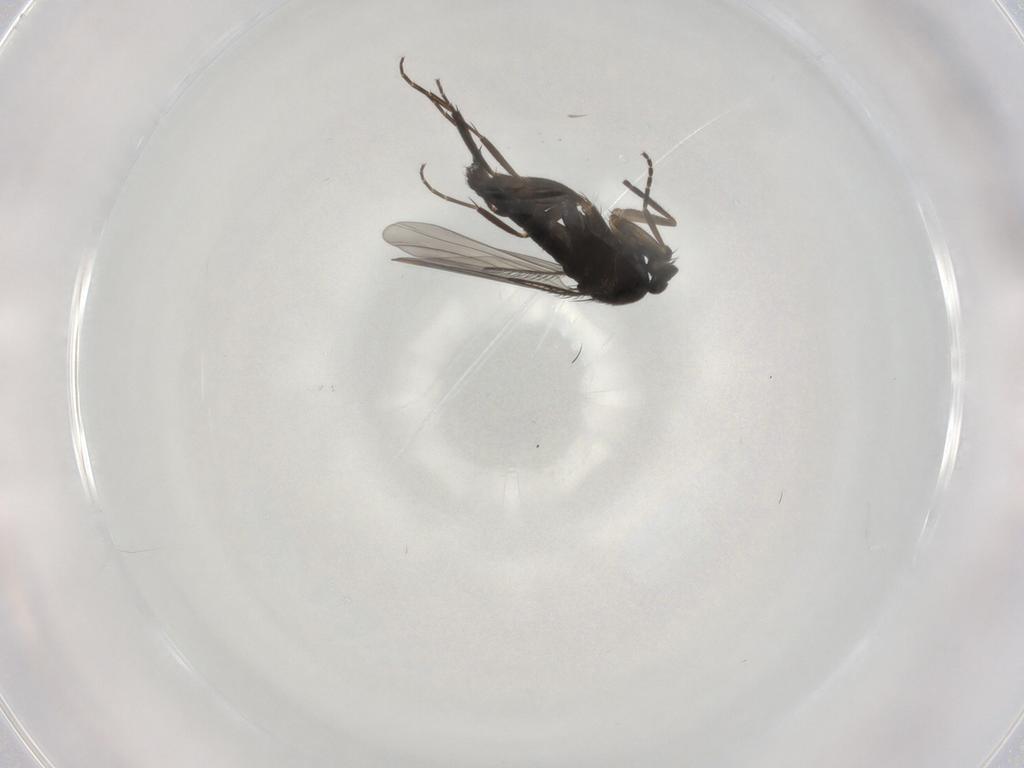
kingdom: Animalia
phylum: Arthropoda
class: Insecta
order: Diptera
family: Phoridae
